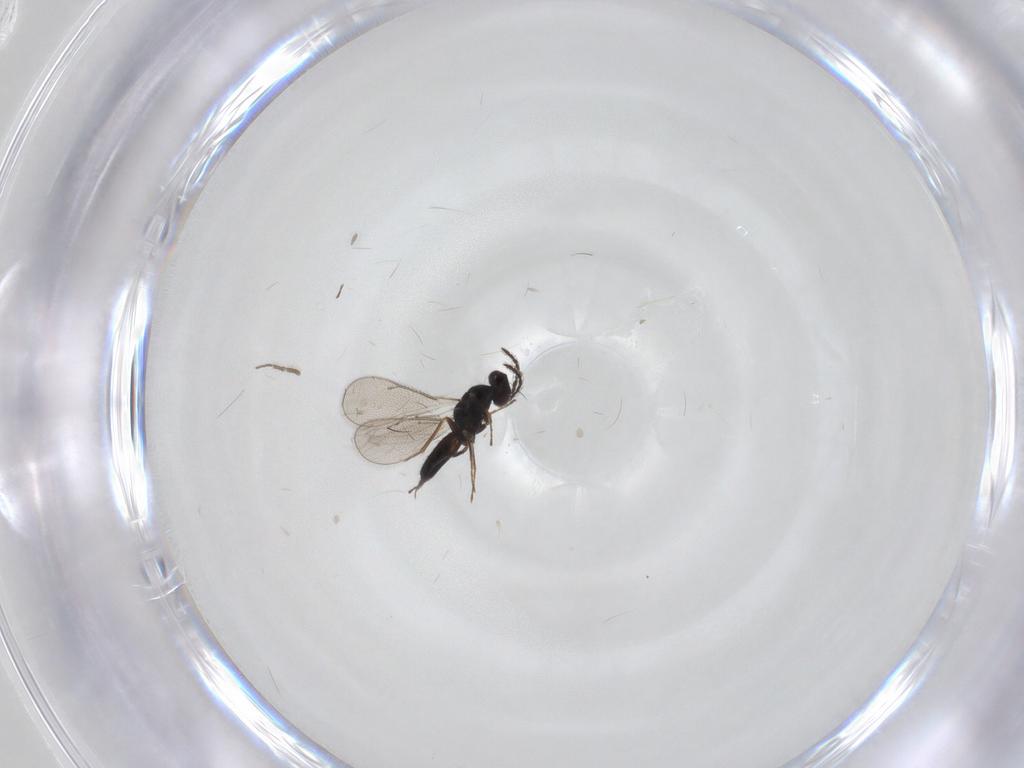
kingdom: Animalia
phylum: Arthropoda
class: Insecta
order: Hymenoptera
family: Eulophidae
